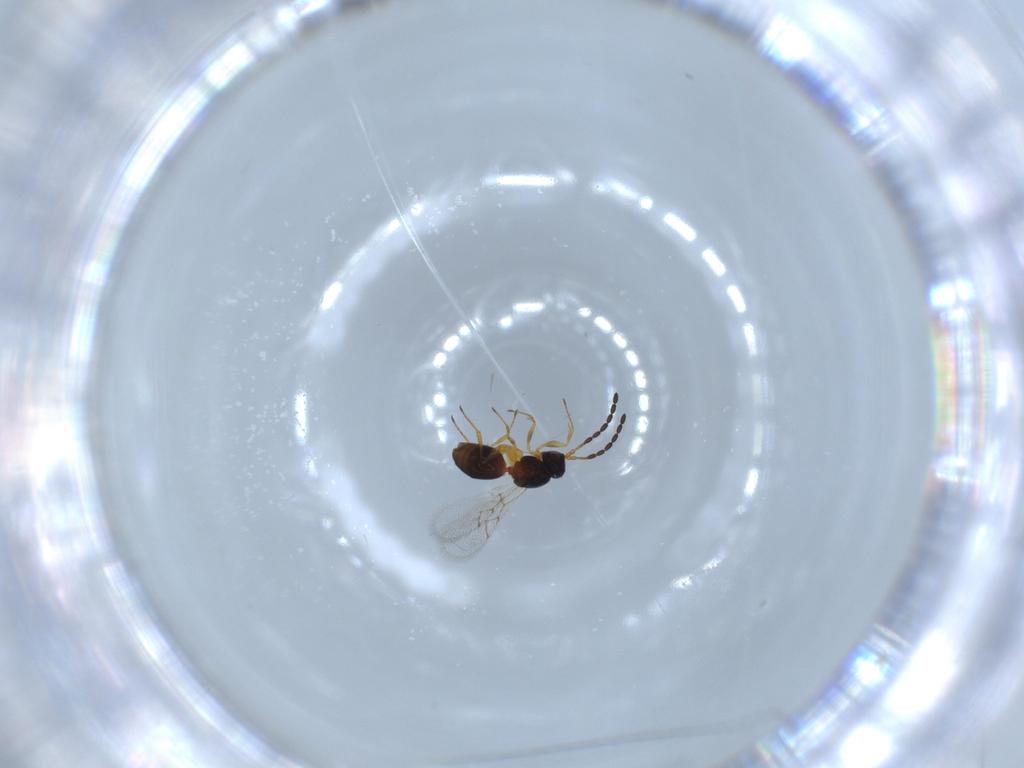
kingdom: Animalia
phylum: Arthropoda
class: Insecta
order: Hymenoptera
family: Figitidae
